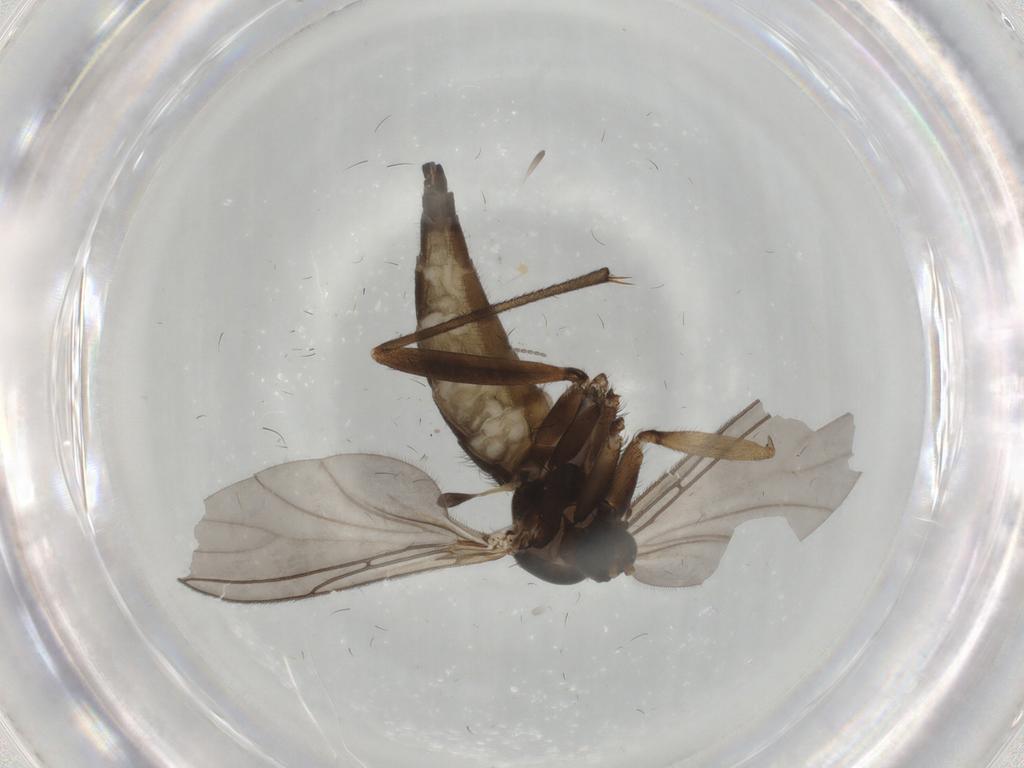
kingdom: Animalia
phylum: Arthropoda
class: Insecta
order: Diptera
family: Sciaridae
